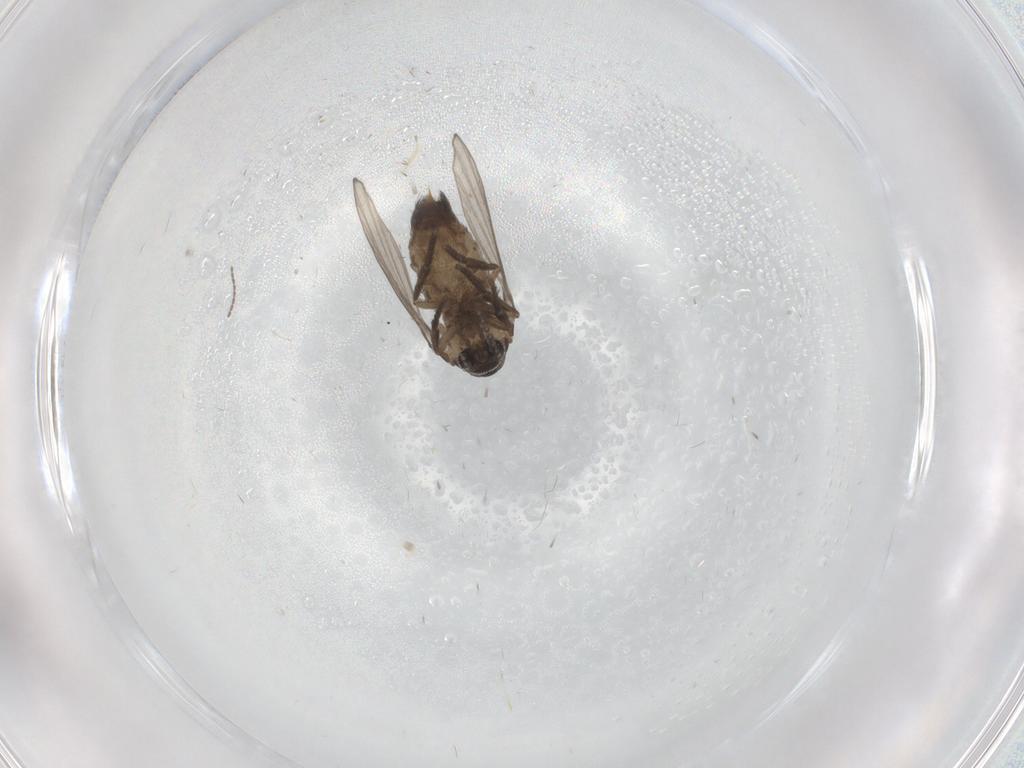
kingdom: Animalia
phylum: Arthropoda
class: Insecta
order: Diptera
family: Psychodidae
